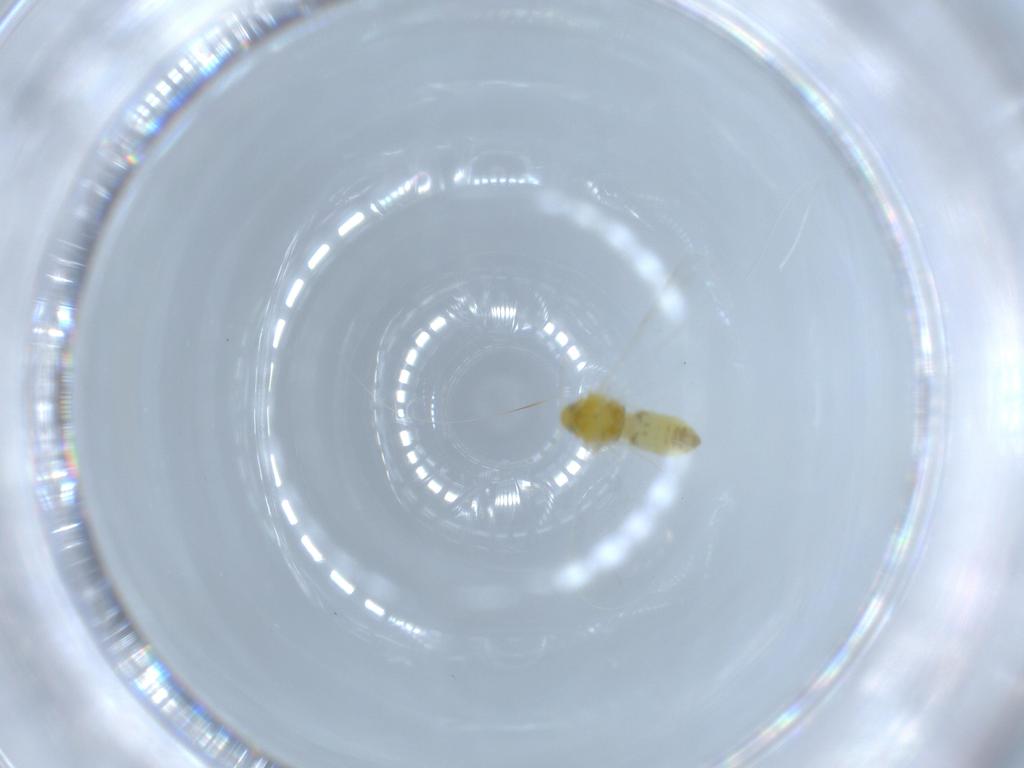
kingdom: Animalia
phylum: Arthropoda
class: Insecta
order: Hemiptera
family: Aleyrodidae
